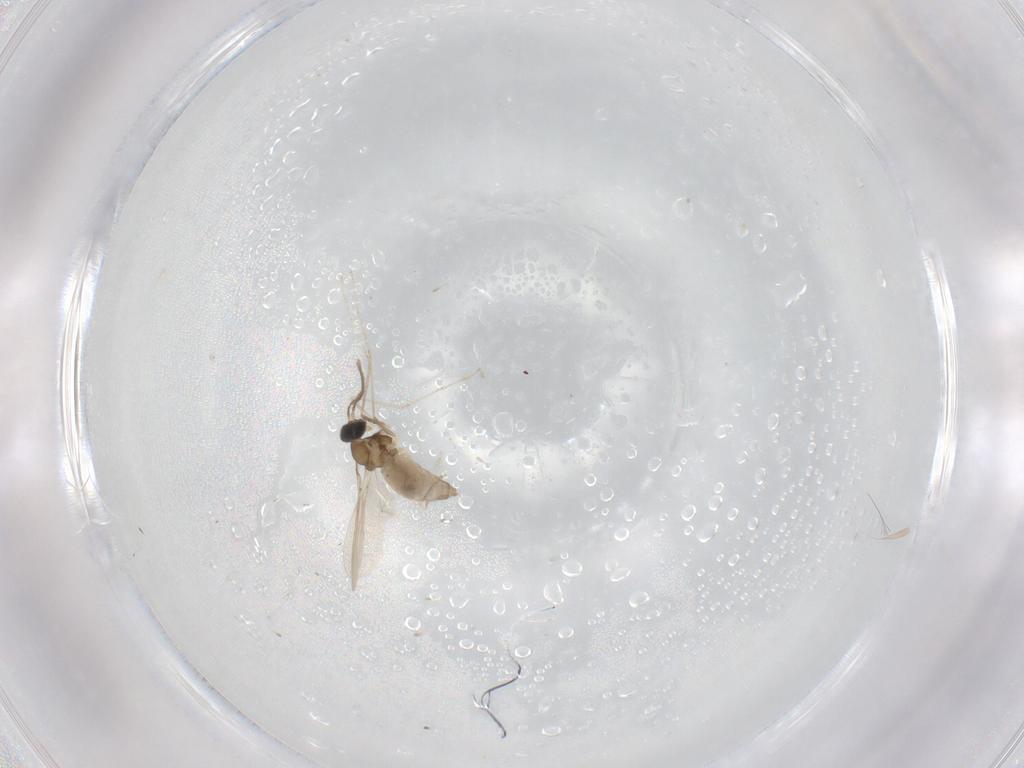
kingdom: Animalia
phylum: Arthropoda
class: Insecta
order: Diptera
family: Cecidomyiidae
